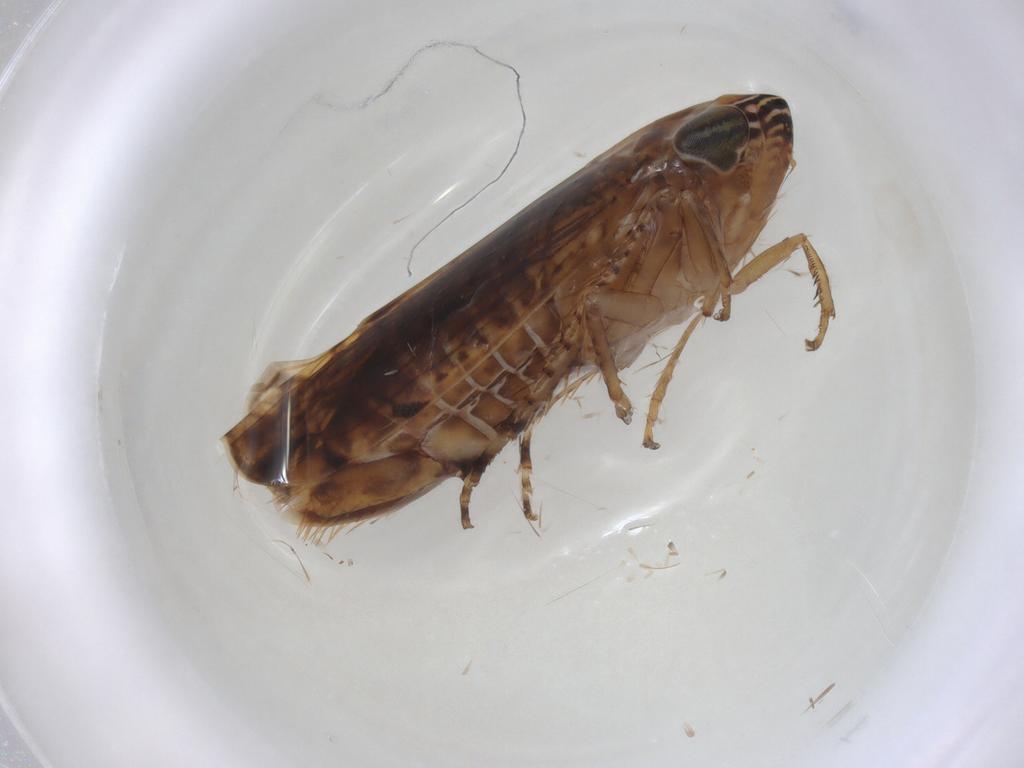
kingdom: Animalia
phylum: Arthropoda
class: Insecta
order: Hemiptera
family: Cicadellidae
